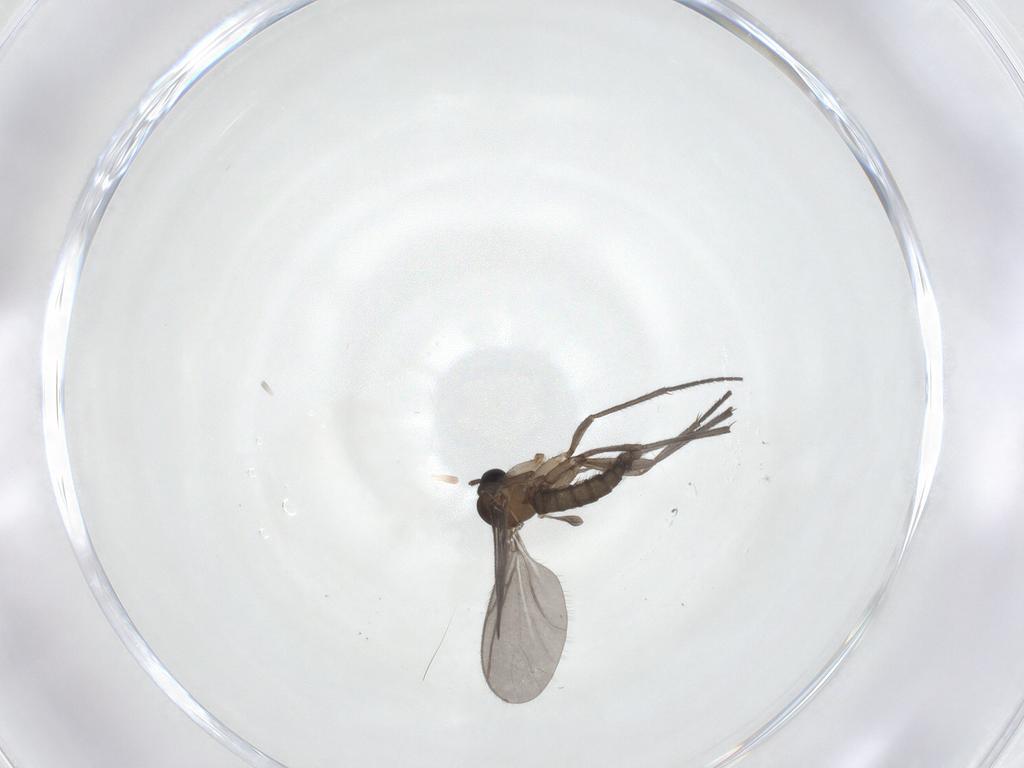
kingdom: Animalia
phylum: Arthropoda
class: Insecta
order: Diptera
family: Sciaridae
